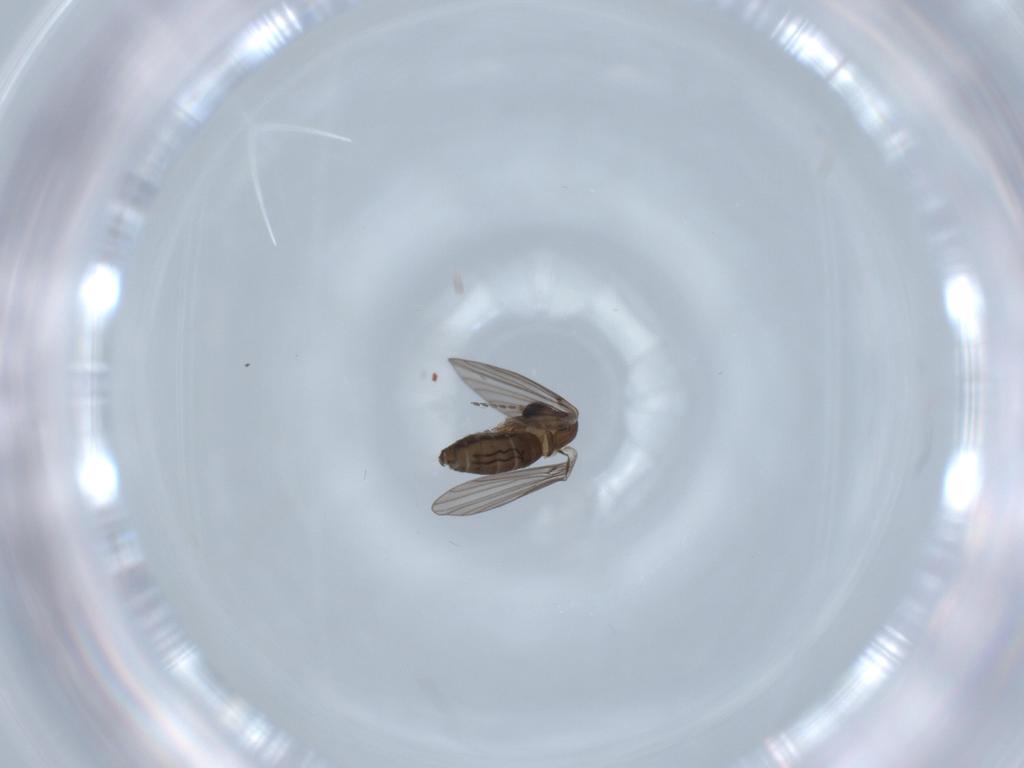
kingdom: Animalia
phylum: Arthropoda
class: Insecta
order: Diptera
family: Psychodidae
